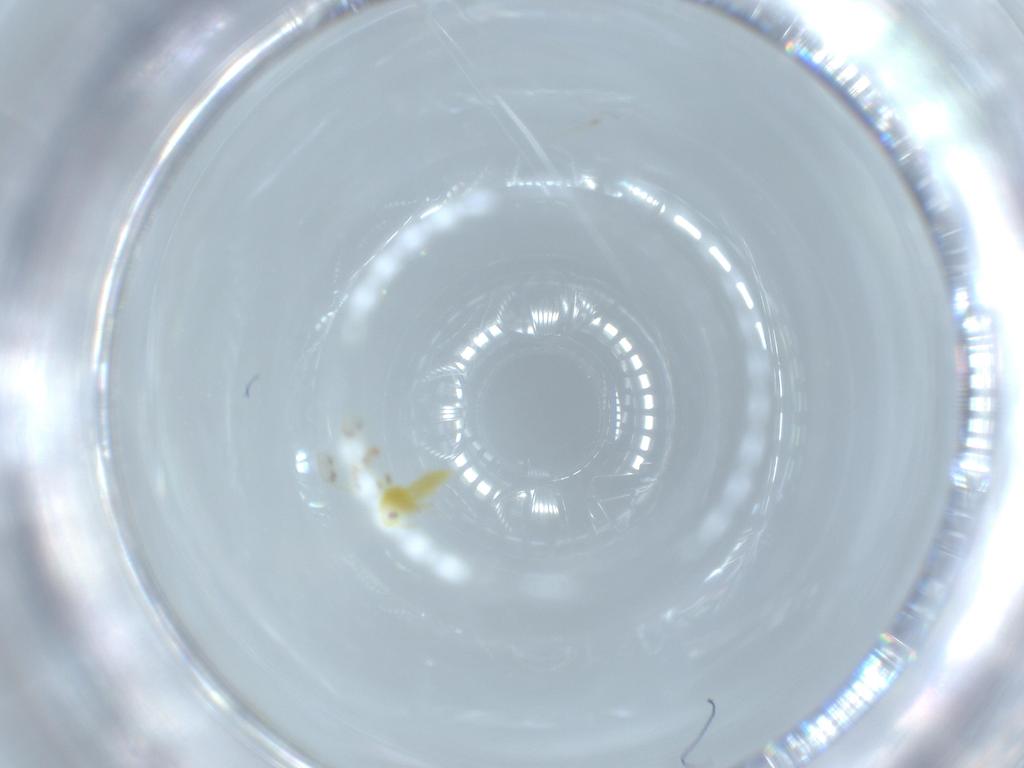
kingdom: Animalia
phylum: Arthropoda
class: Insecta
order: Hemiptera
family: Aleyrodidae
